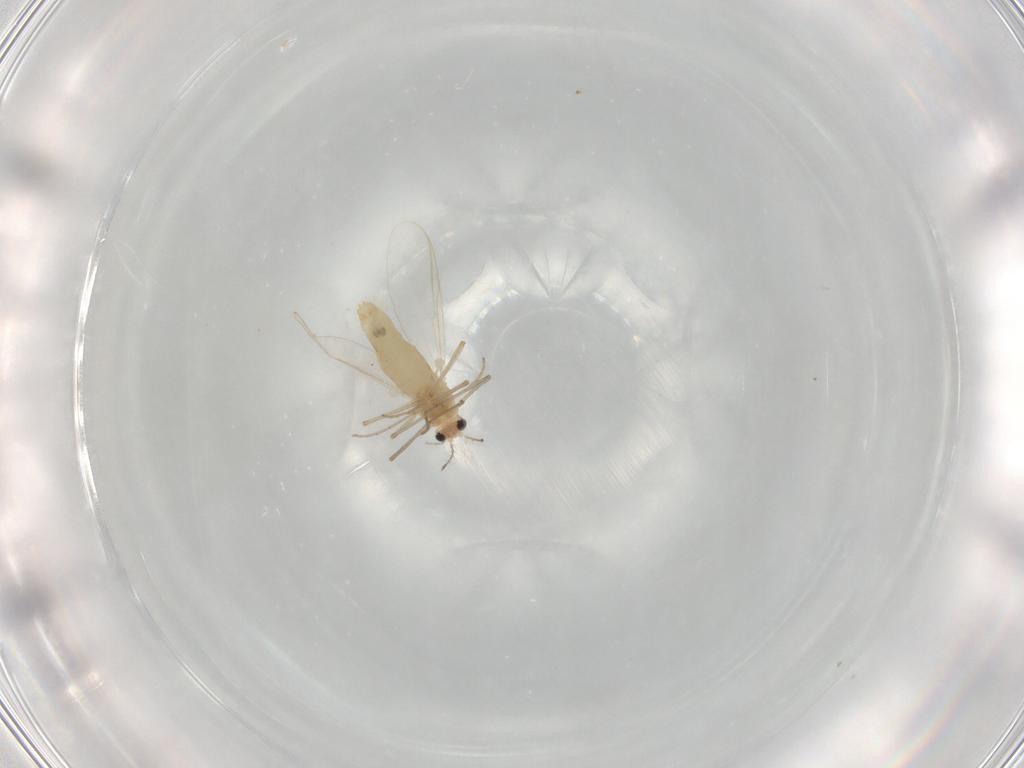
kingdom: Animalia
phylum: Arthropoda
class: Insecta
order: Diptera
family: Chironomidae
